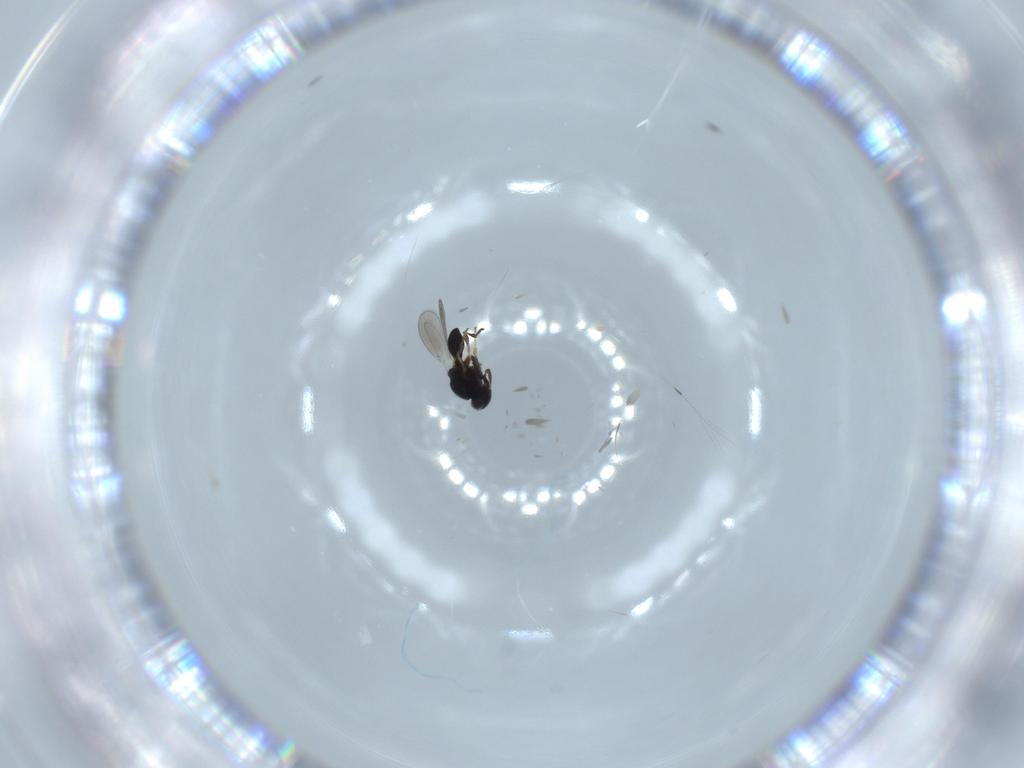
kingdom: Animalia
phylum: Arthropoda
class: Insecta
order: Hymenoptera
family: Platygastridae
